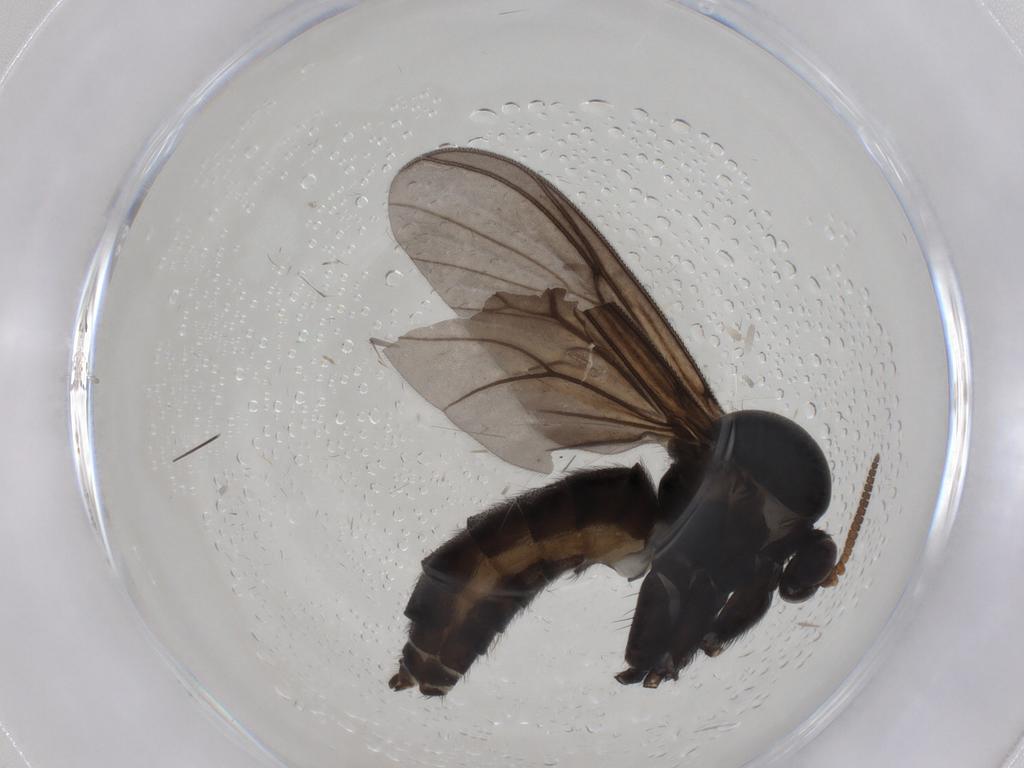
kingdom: Animalia
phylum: Arthropoda
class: Insecta
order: Diptera
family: Mycetophilidae
